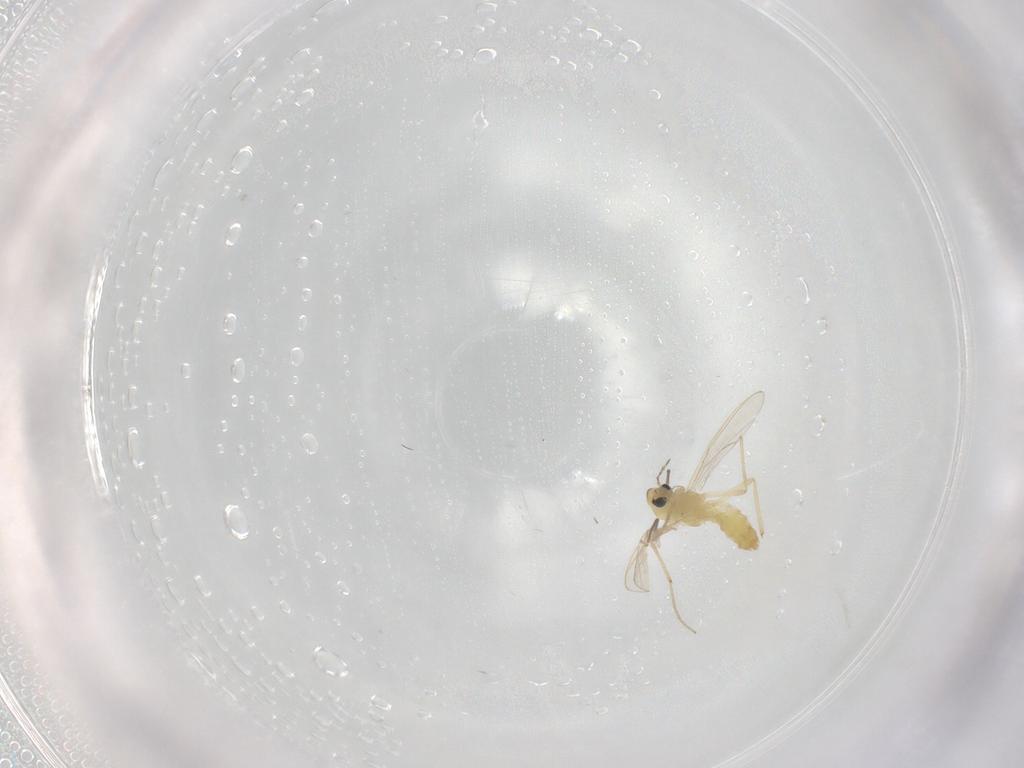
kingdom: Animalia
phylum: Arthropoda
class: Insecta
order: Diptera
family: Chironomidae
